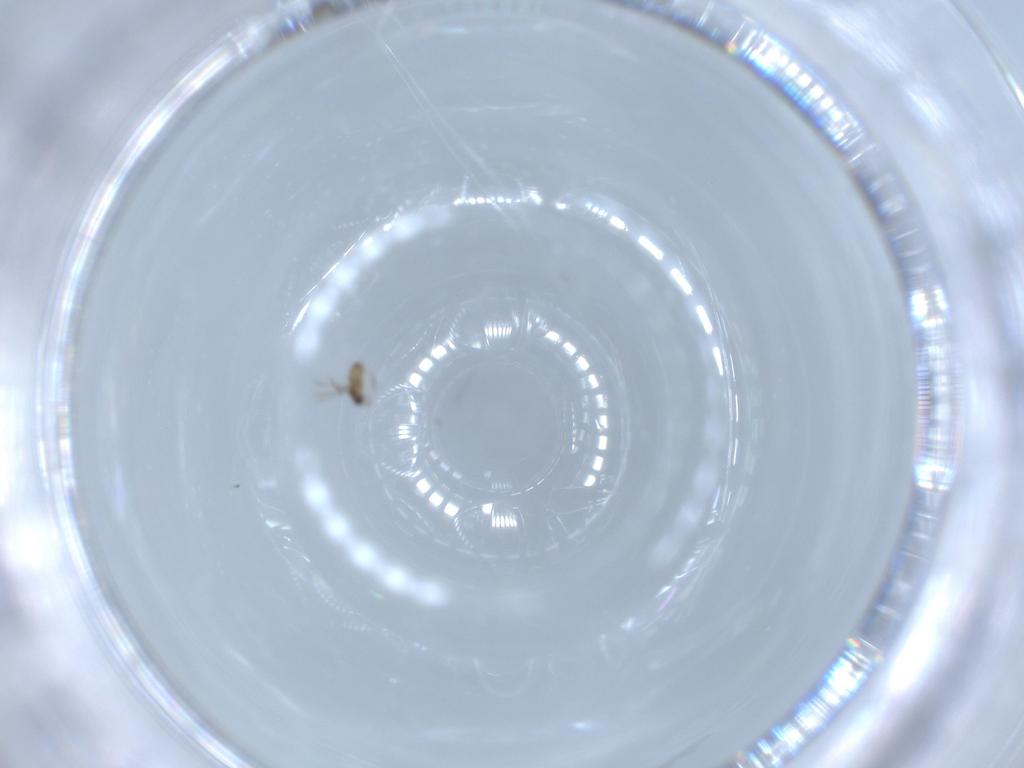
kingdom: Animalia
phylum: Arthropoda
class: Insecta
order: Hymenoptera
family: Mymaridae
